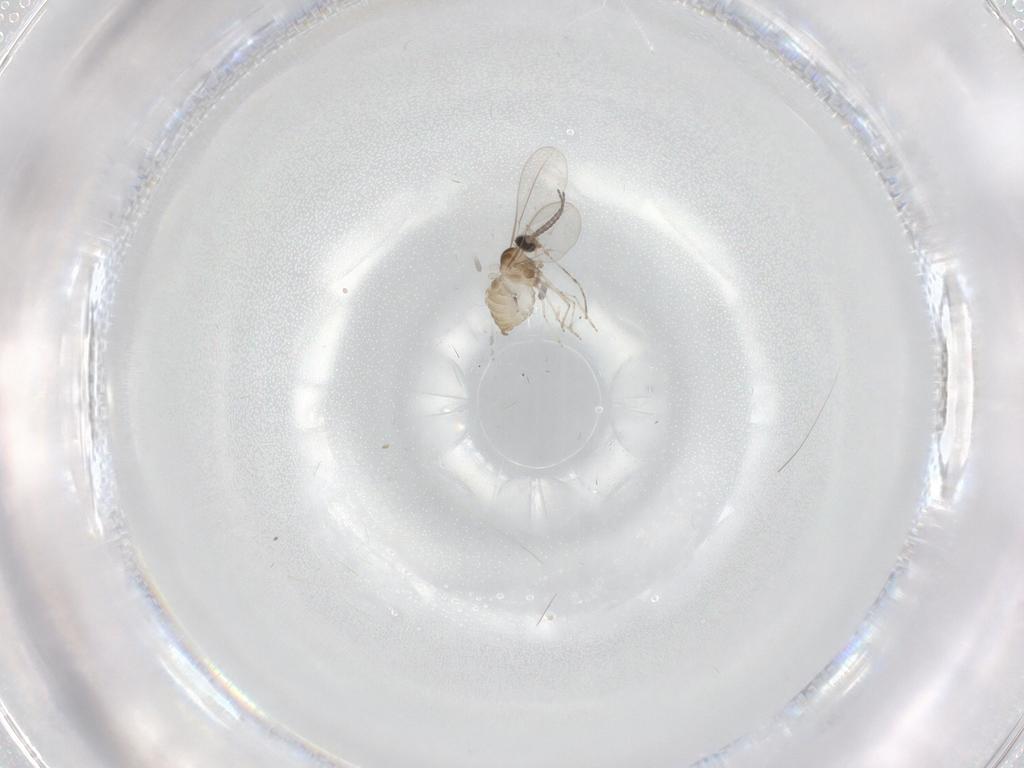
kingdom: Animalia
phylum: Arthropoda
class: Insecta
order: Diptera
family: Cecidomyiidae
